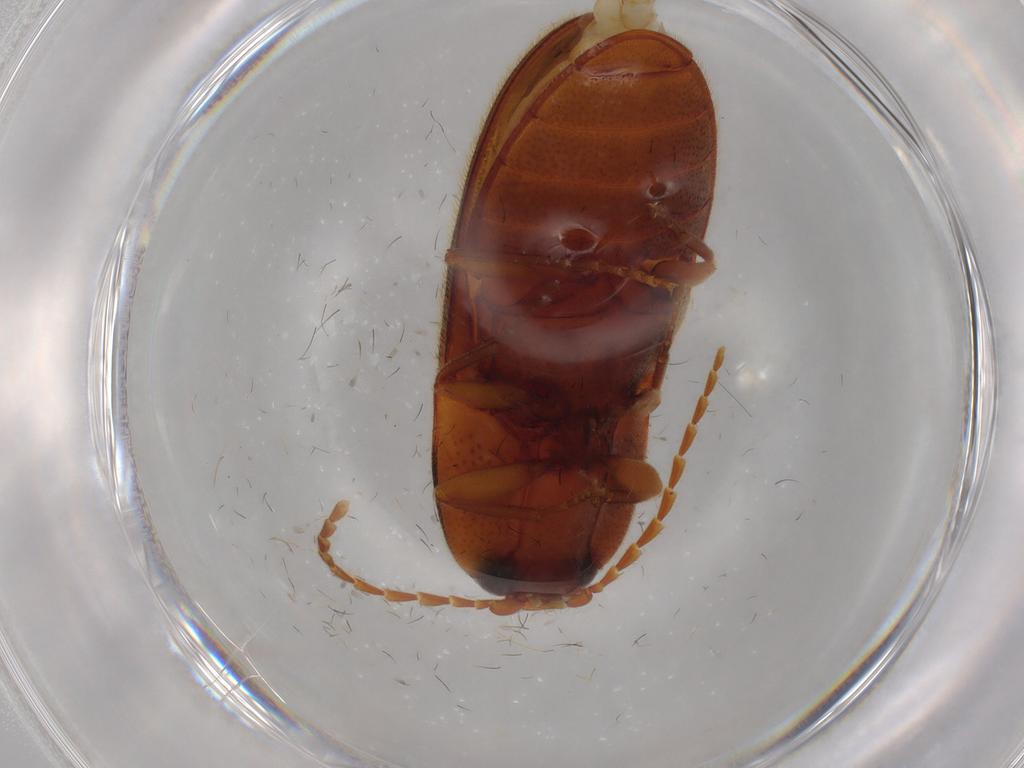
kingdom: Animalia
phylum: Arthropoda
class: Insecta
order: Coleoptera
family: Elateridae
